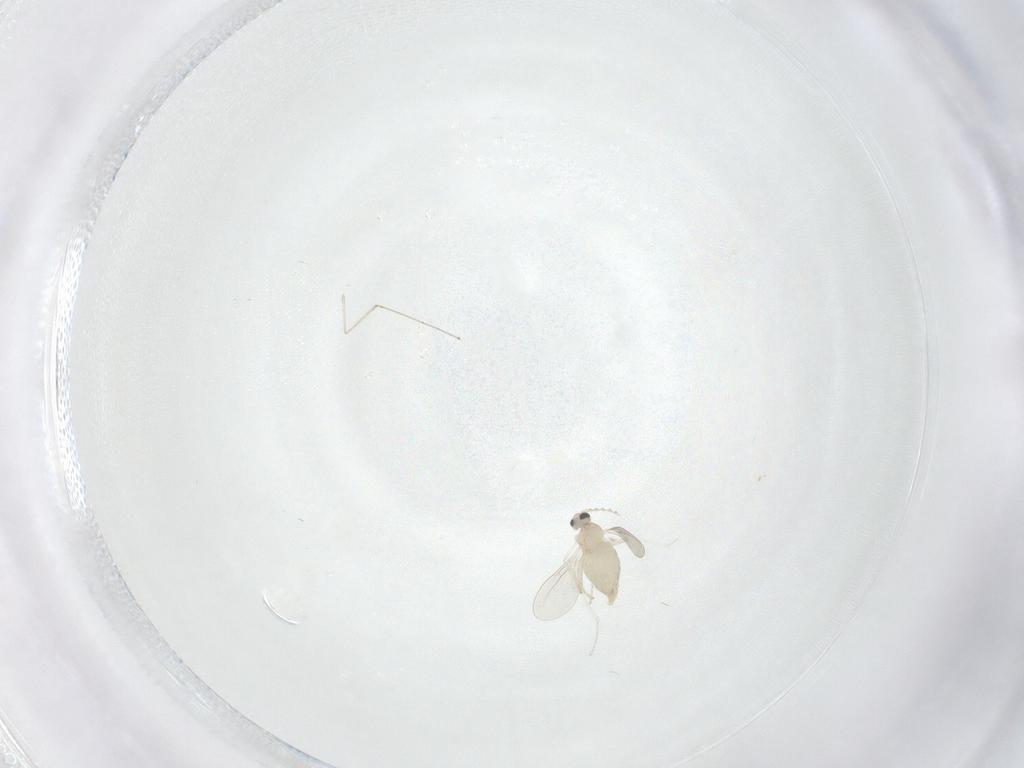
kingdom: Animalia
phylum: Arthropoda
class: Insecta
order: Diptera
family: Cecidomyiidae
